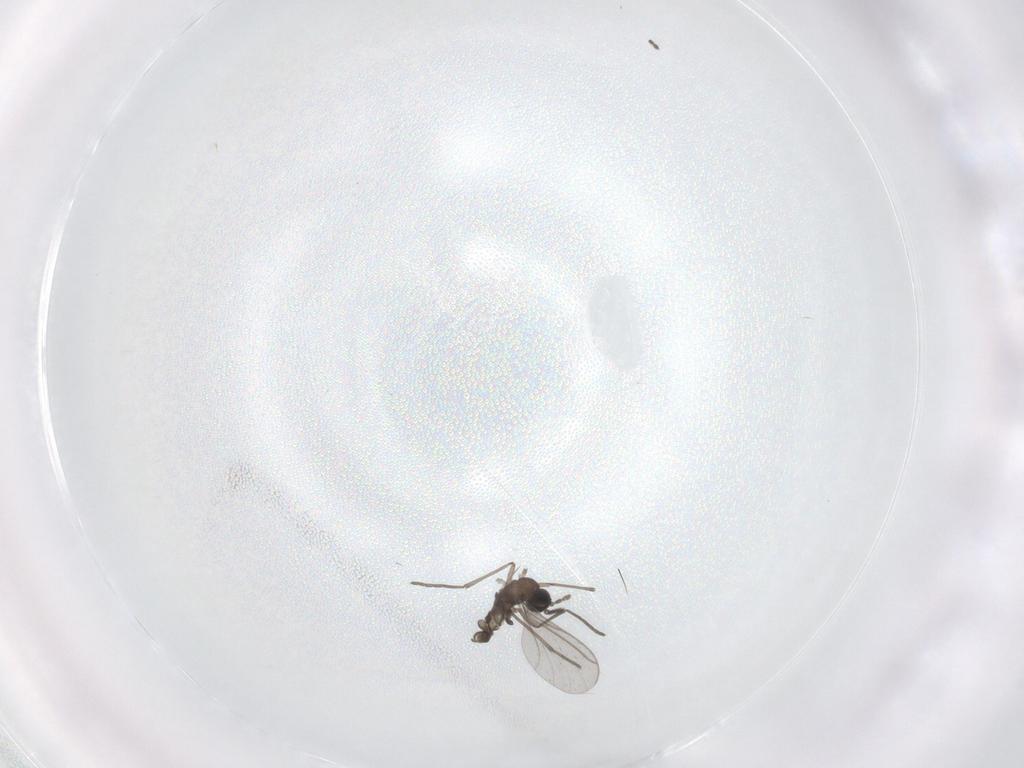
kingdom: Animalia
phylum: Arthropoda
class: Insecta
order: Diptera
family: Sciaridae
